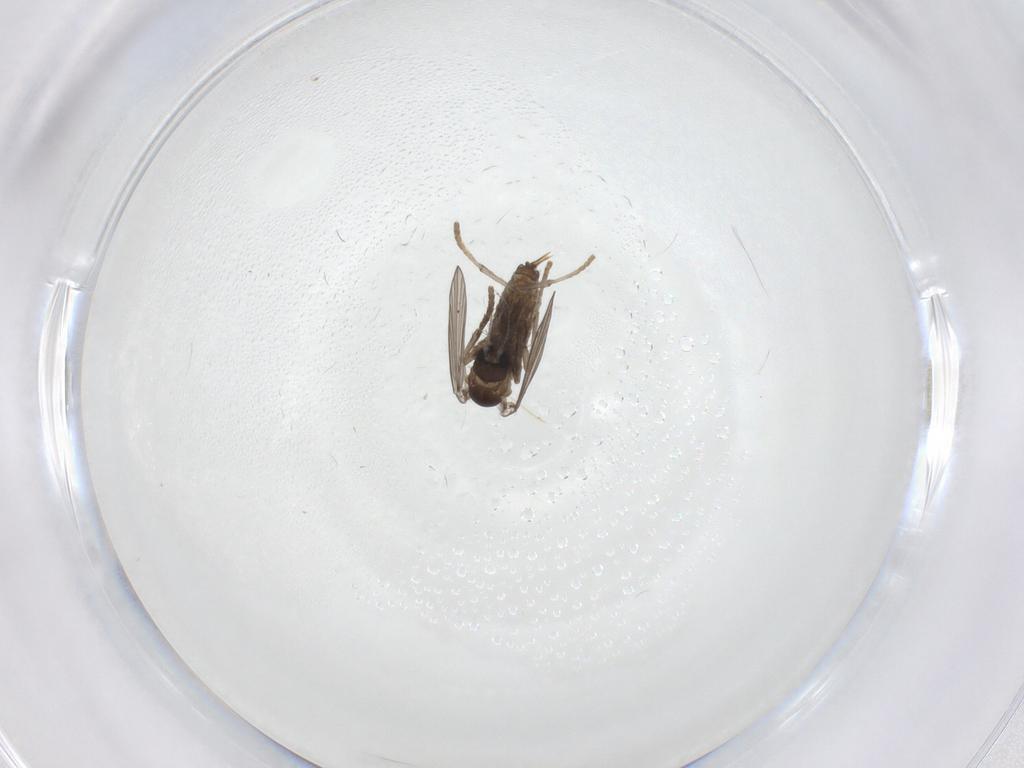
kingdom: Animalia
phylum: Arthropoda
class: Insecta
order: Diptera
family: Psychodidae
